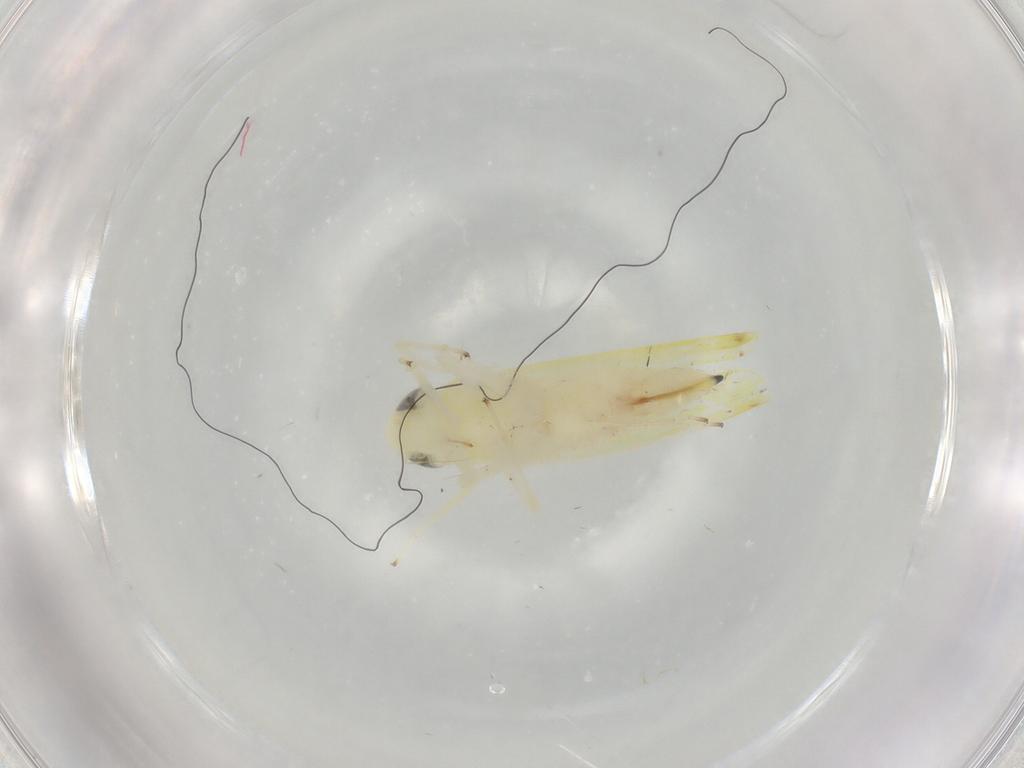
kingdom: Animalia
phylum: Arthropoda
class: Insecta
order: Hemiptera
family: Cicadellidae
